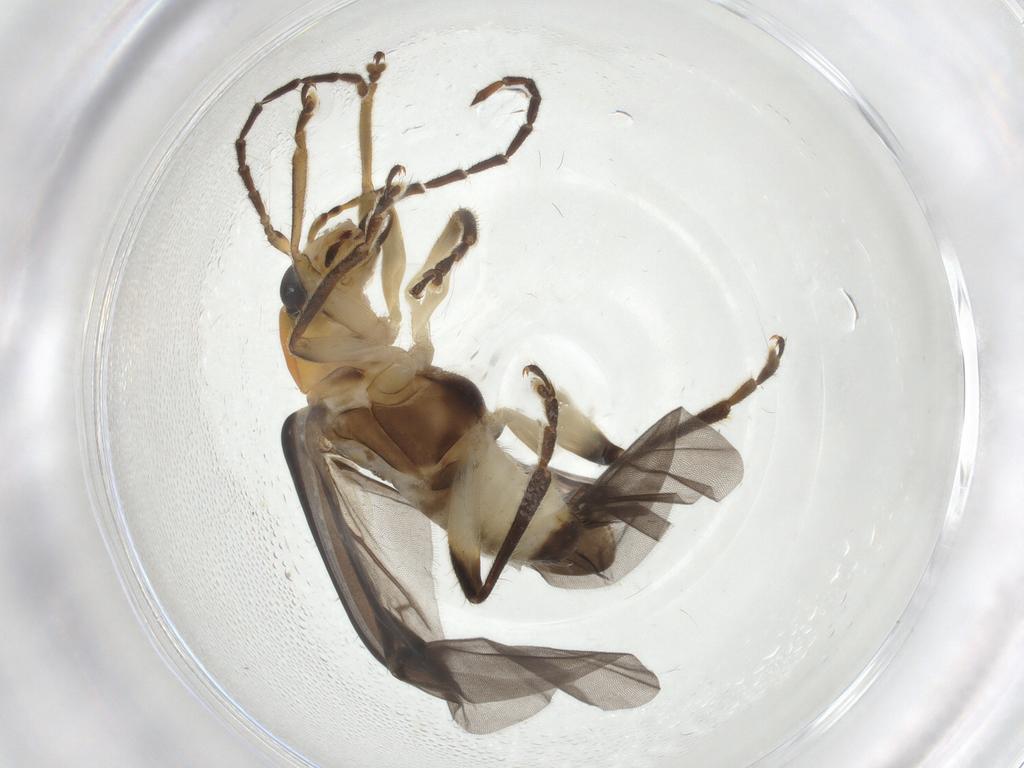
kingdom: Animalia
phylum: Arthropoda
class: Insecta
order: Coleoptera
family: Chrysomelidae
